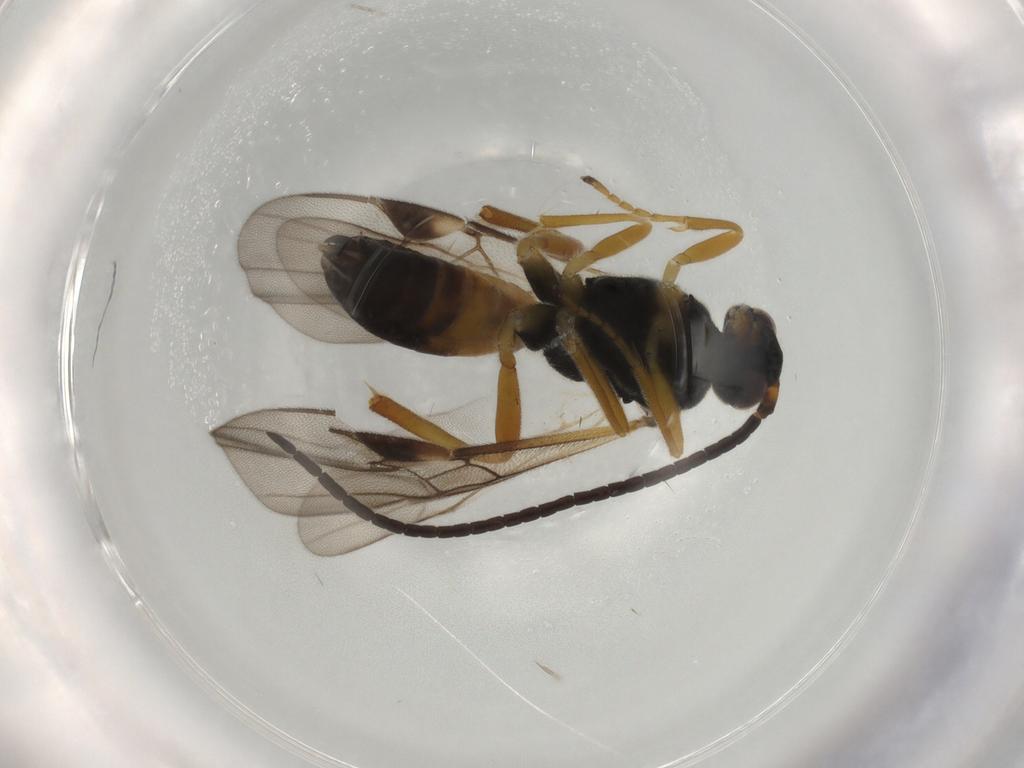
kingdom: Animalia
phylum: Arthropoda
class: Insecta
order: Hymenoptera
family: Braconidae
